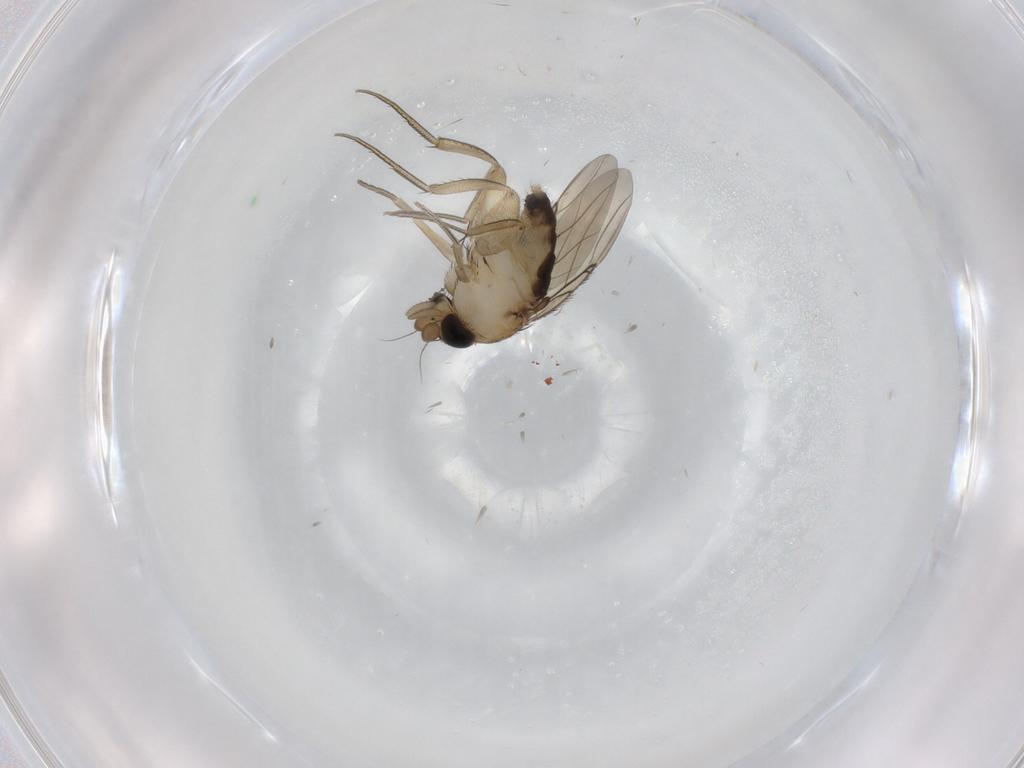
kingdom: Animalia
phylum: Arthropoda
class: Insecta
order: Diptera
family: Phoridae
